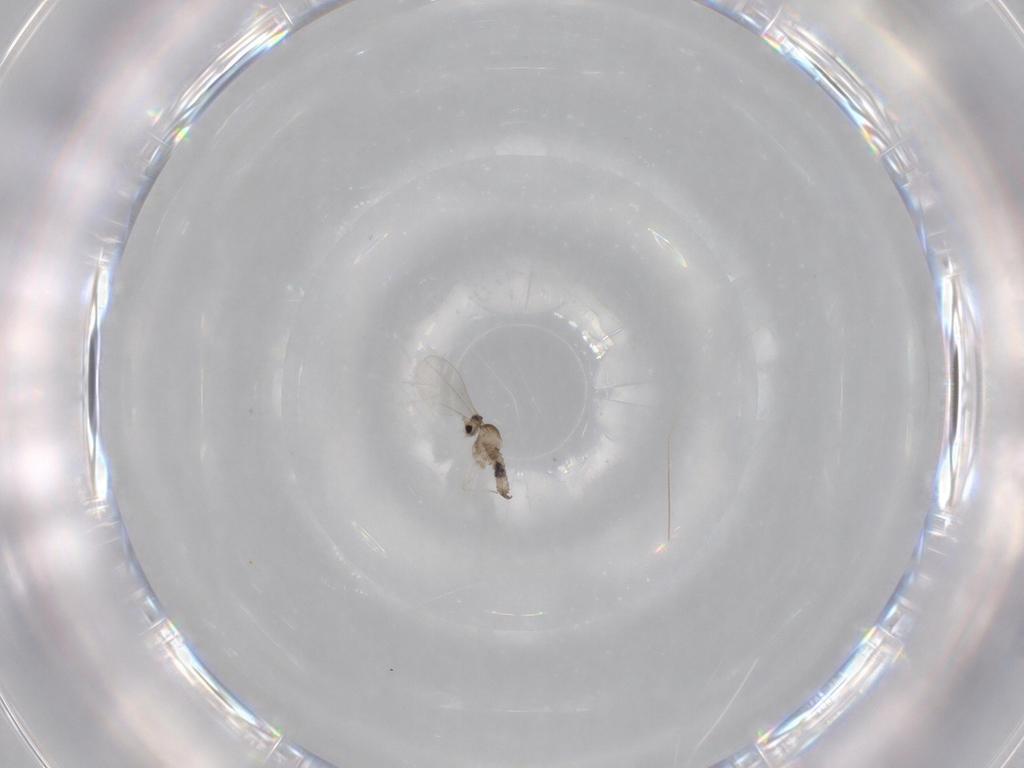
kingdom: Animalia
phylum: Arthropoda
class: Insecta
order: Diptera
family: Cecidomyiidae
